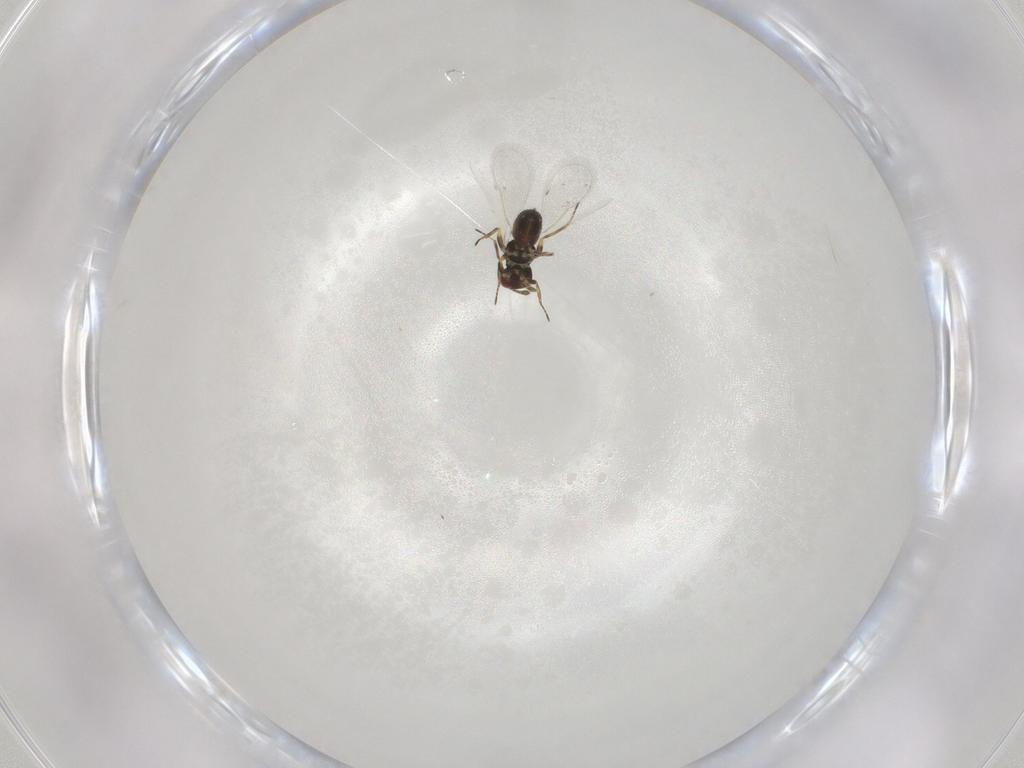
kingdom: Animalia
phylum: Arthropoda
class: Insecta
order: Hymenoptera
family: Eulophidae
